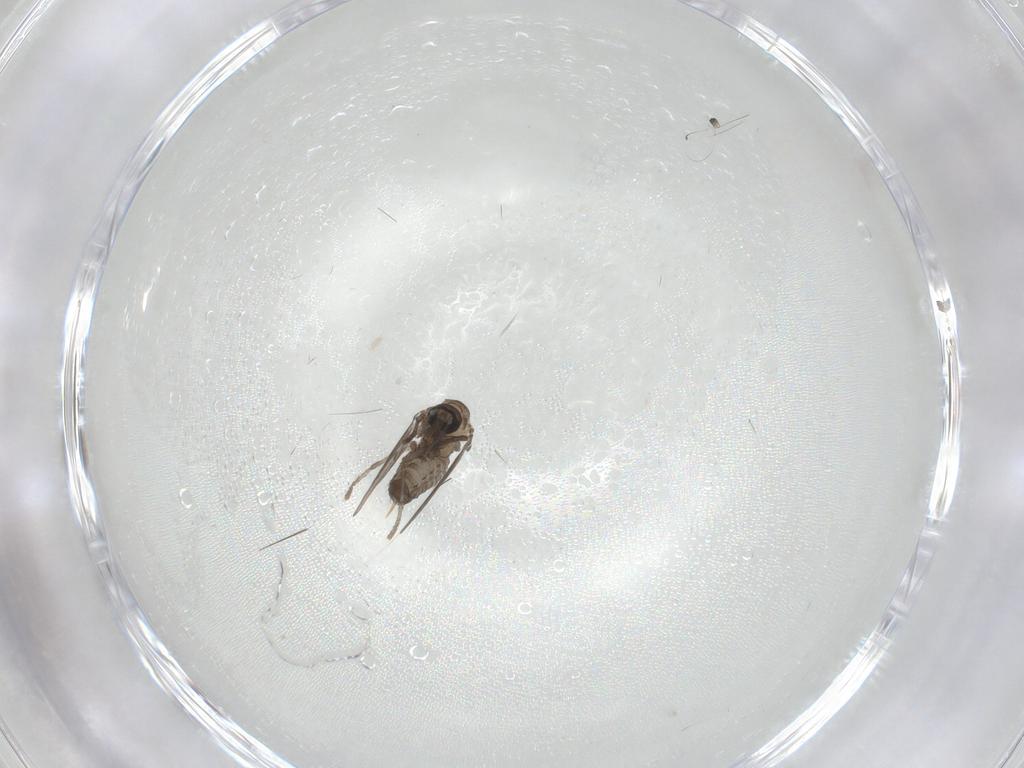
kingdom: Animalia
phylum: Arthropoda
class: Insecta
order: Diptera
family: Psychodidae
